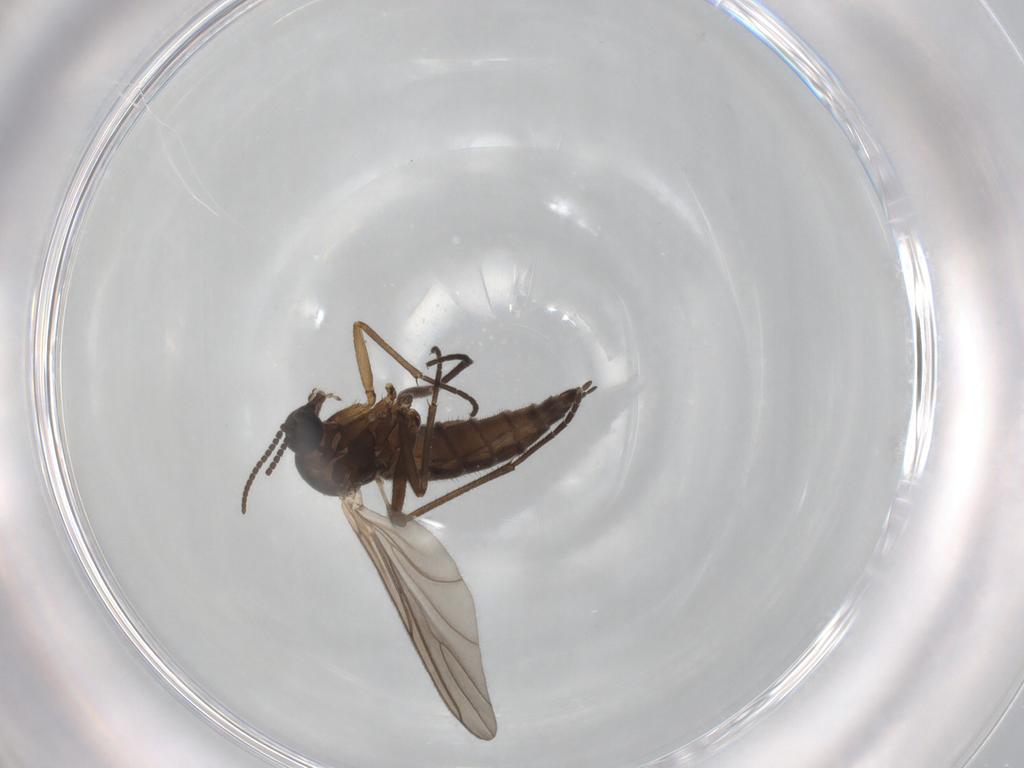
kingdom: Animalia
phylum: Arthropoda
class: Insecta
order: Diptera
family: Sciaridae
